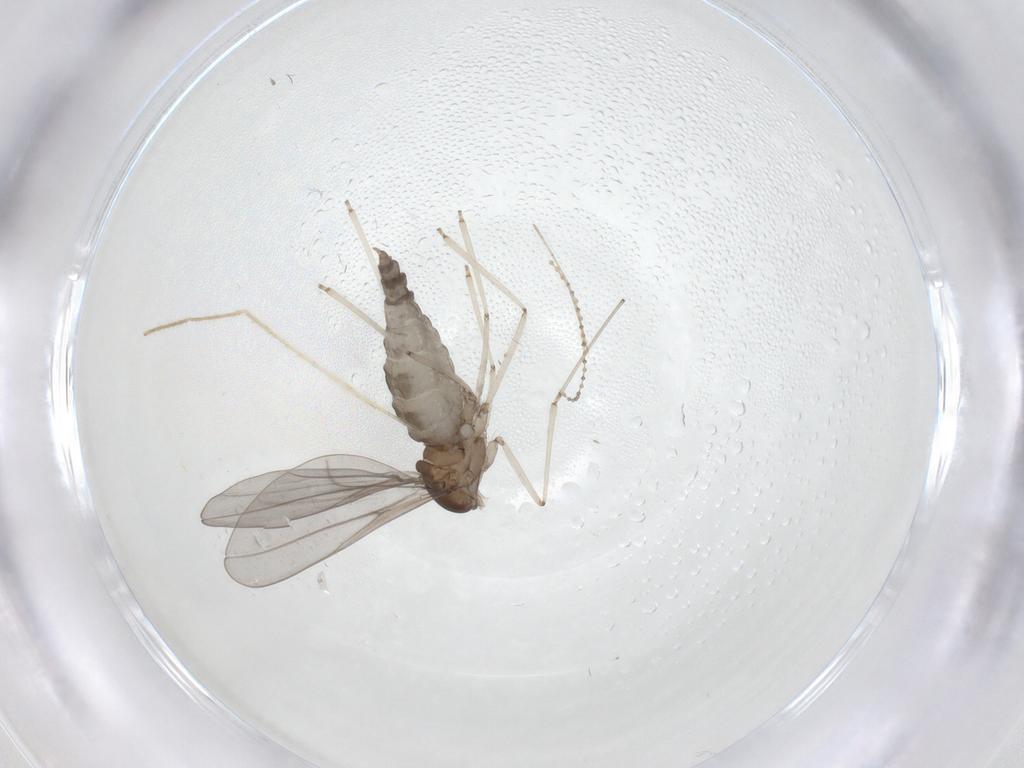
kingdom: Animalia
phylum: Arthropoda
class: Insecta
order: Diptera
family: Cecidomyiidae
